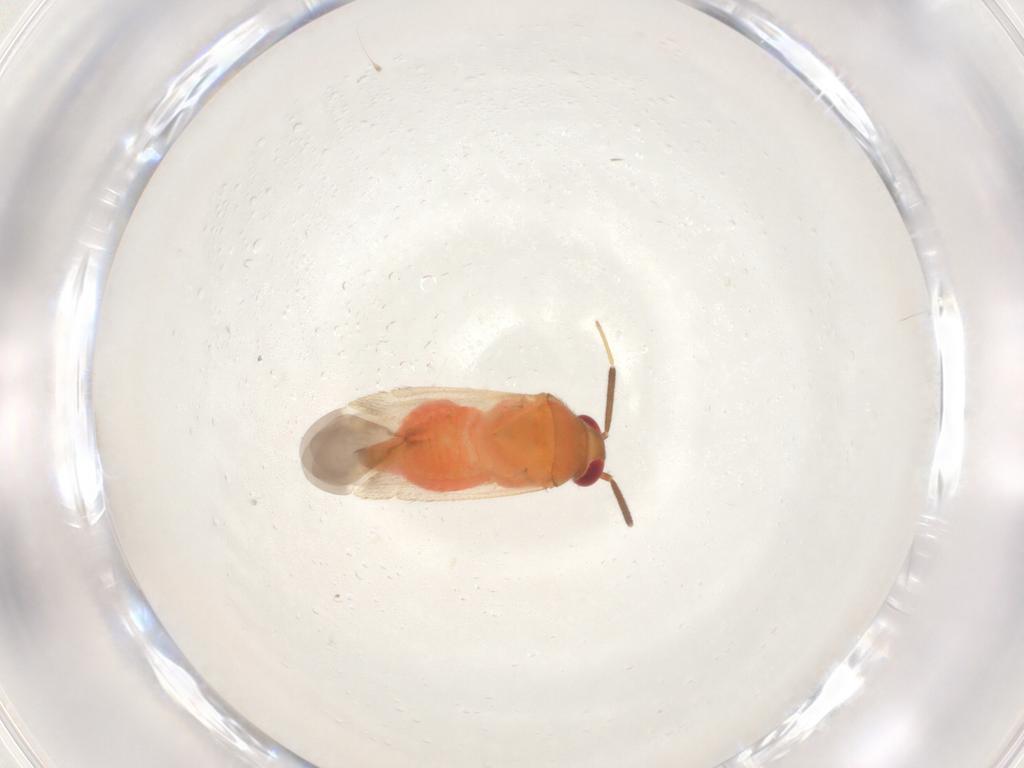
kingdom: Animalia
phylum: Arthropoda
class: Insecta
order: Hemiptera
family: Miridae
